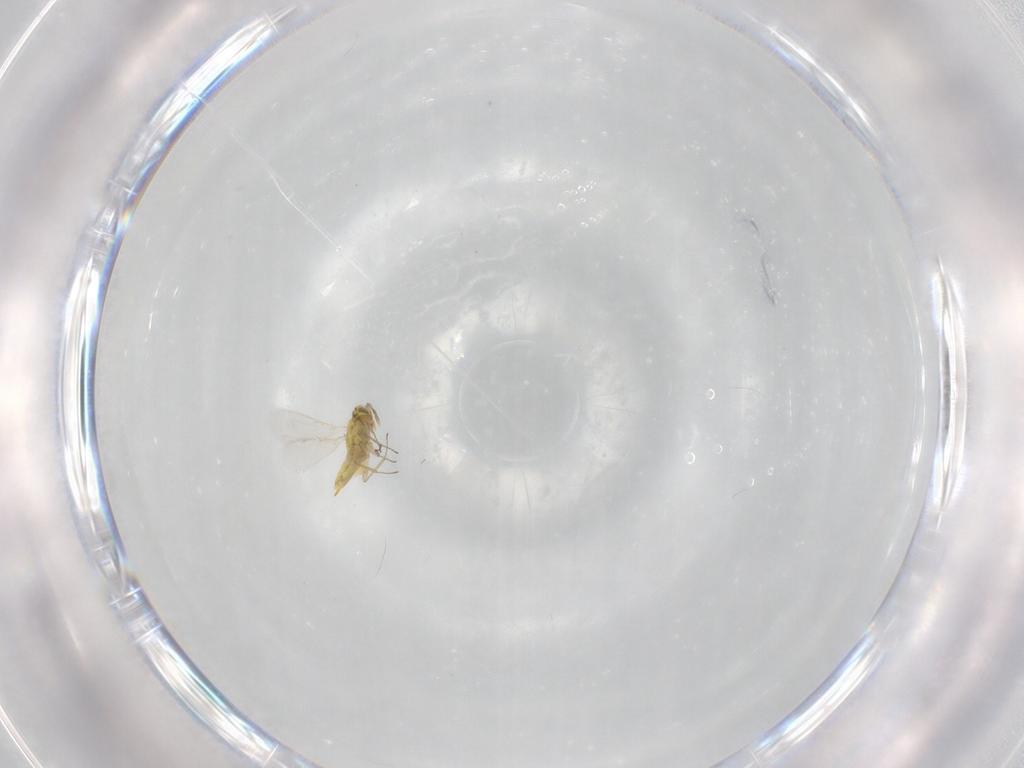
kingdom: Animalia
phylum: Arthropoda
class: Insecta
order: Hymenoptera
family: Aphelinidae
